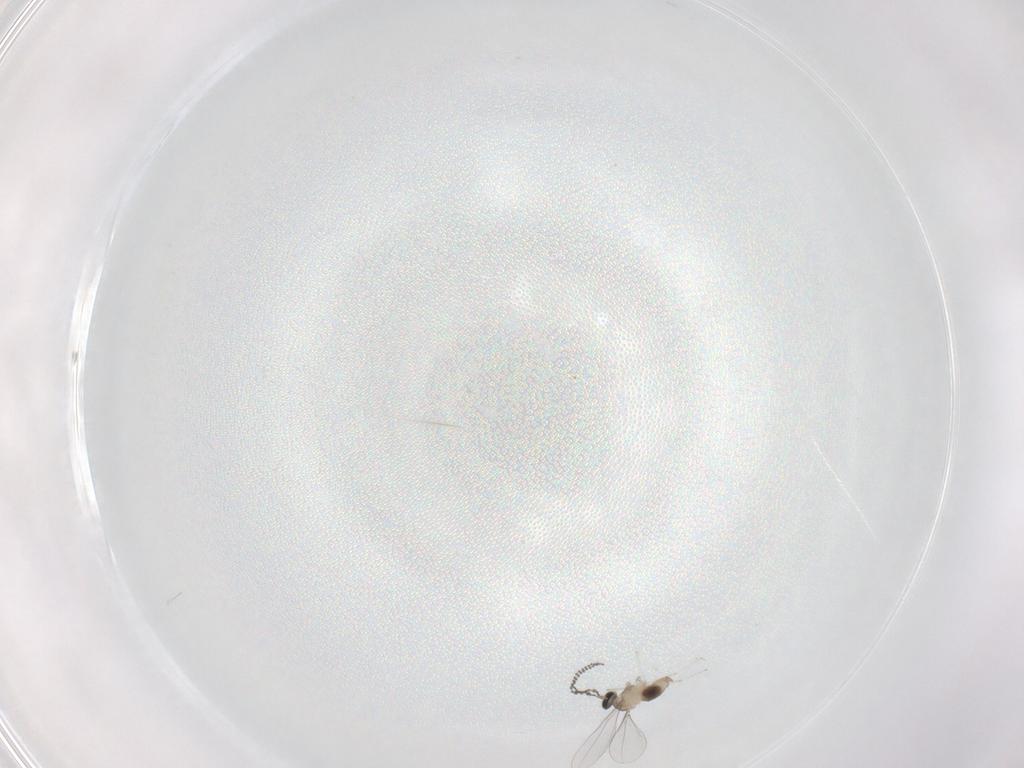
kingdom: Animalia
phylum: Arthropoda
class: Insecta
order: Diptera
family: Cecidomyiidae
